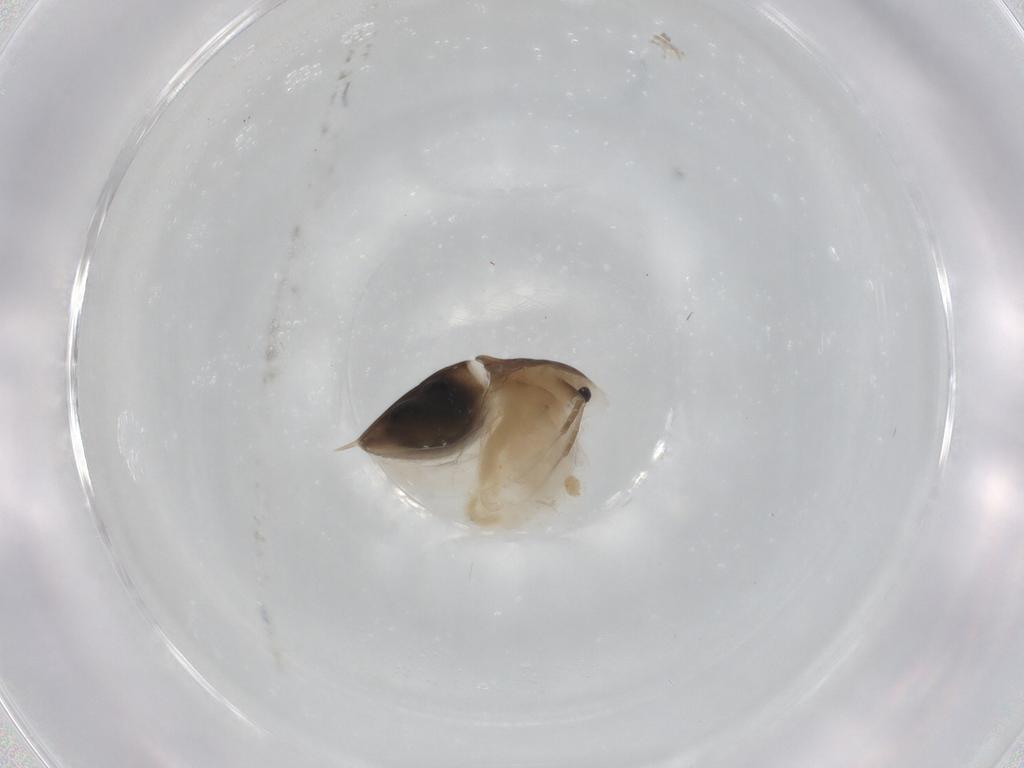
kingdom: Animalia
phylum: Arthropoda
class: Branchiopoda
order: Diplostraca
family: Daphniidae
